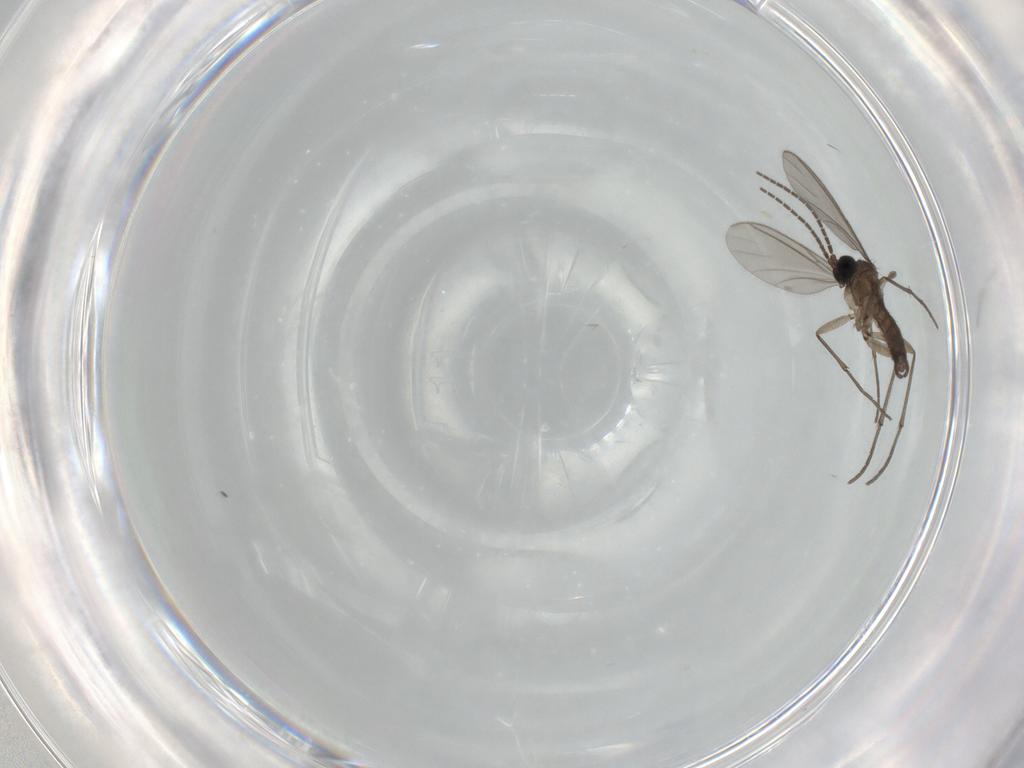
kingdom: Animalia
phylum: Arthropoda
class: Insecta
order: Diptera
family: Sciaridae
